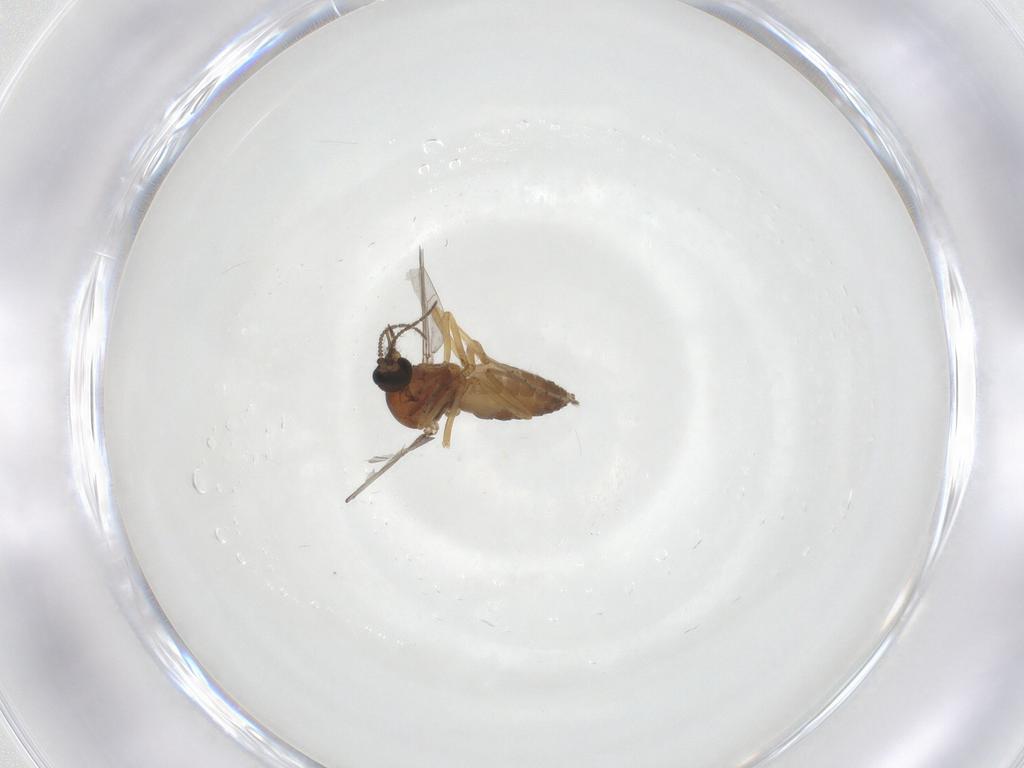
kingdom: Animalia
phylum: Arthropoda
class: Insecta
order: Diptera
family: Ceratopogonidae
